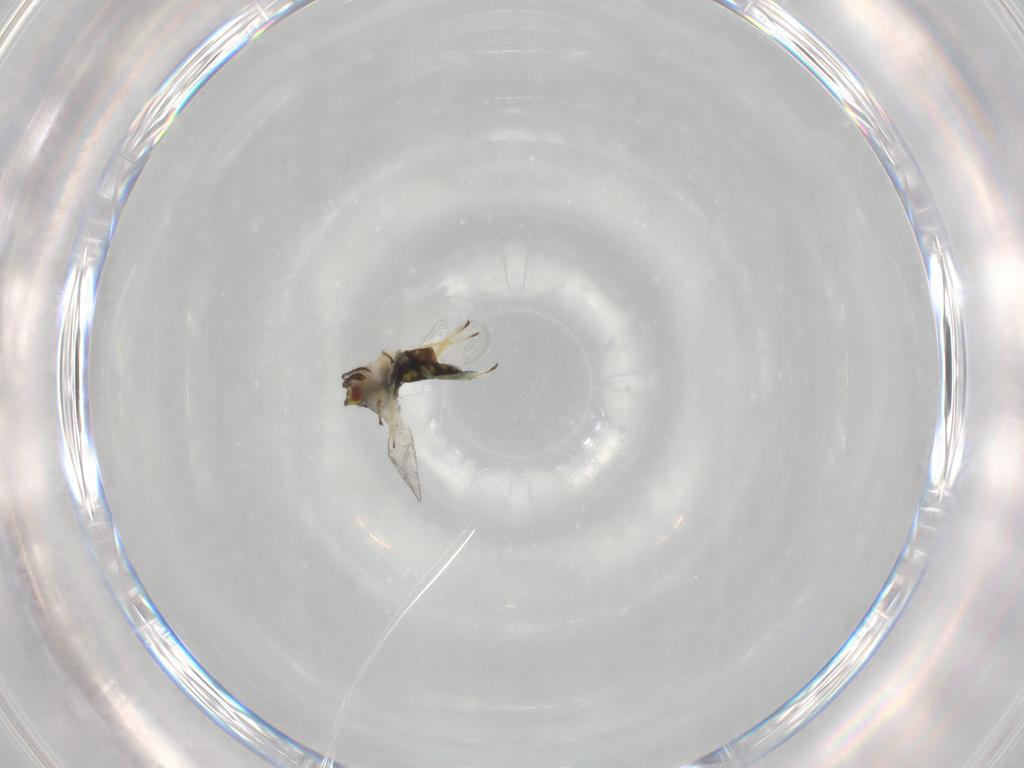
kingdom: Animalia
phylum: Arthropoda
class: Insecta
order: Hymenoptera
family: Eulophidae
